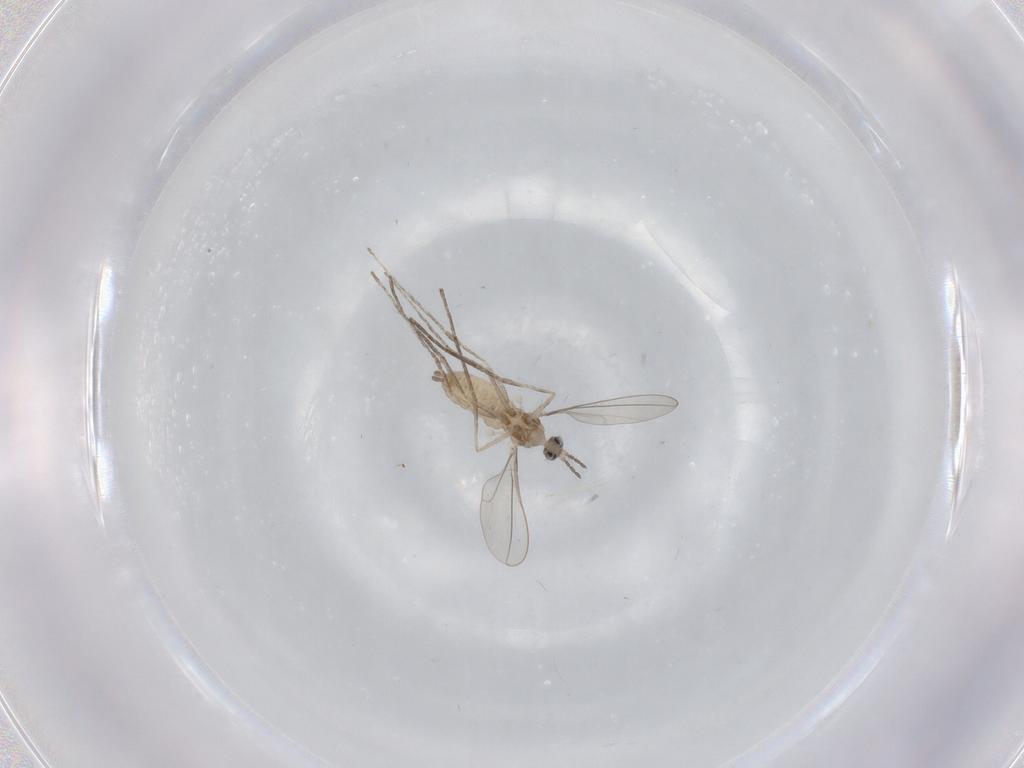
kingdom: Animalia
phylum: Arthropoda
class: Insecta
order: Diptera
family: Cecidomyiidae
